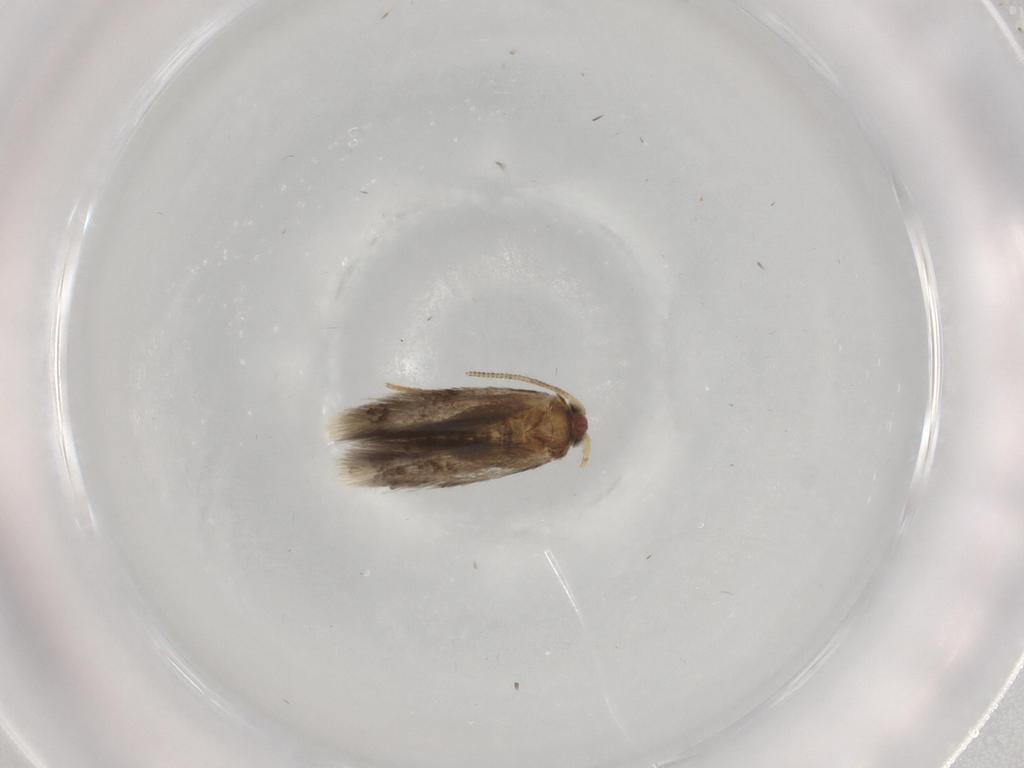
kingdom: Animalia
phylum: Arthropoda
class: Insecta
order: Lepidoptera
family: Nepticulidae
